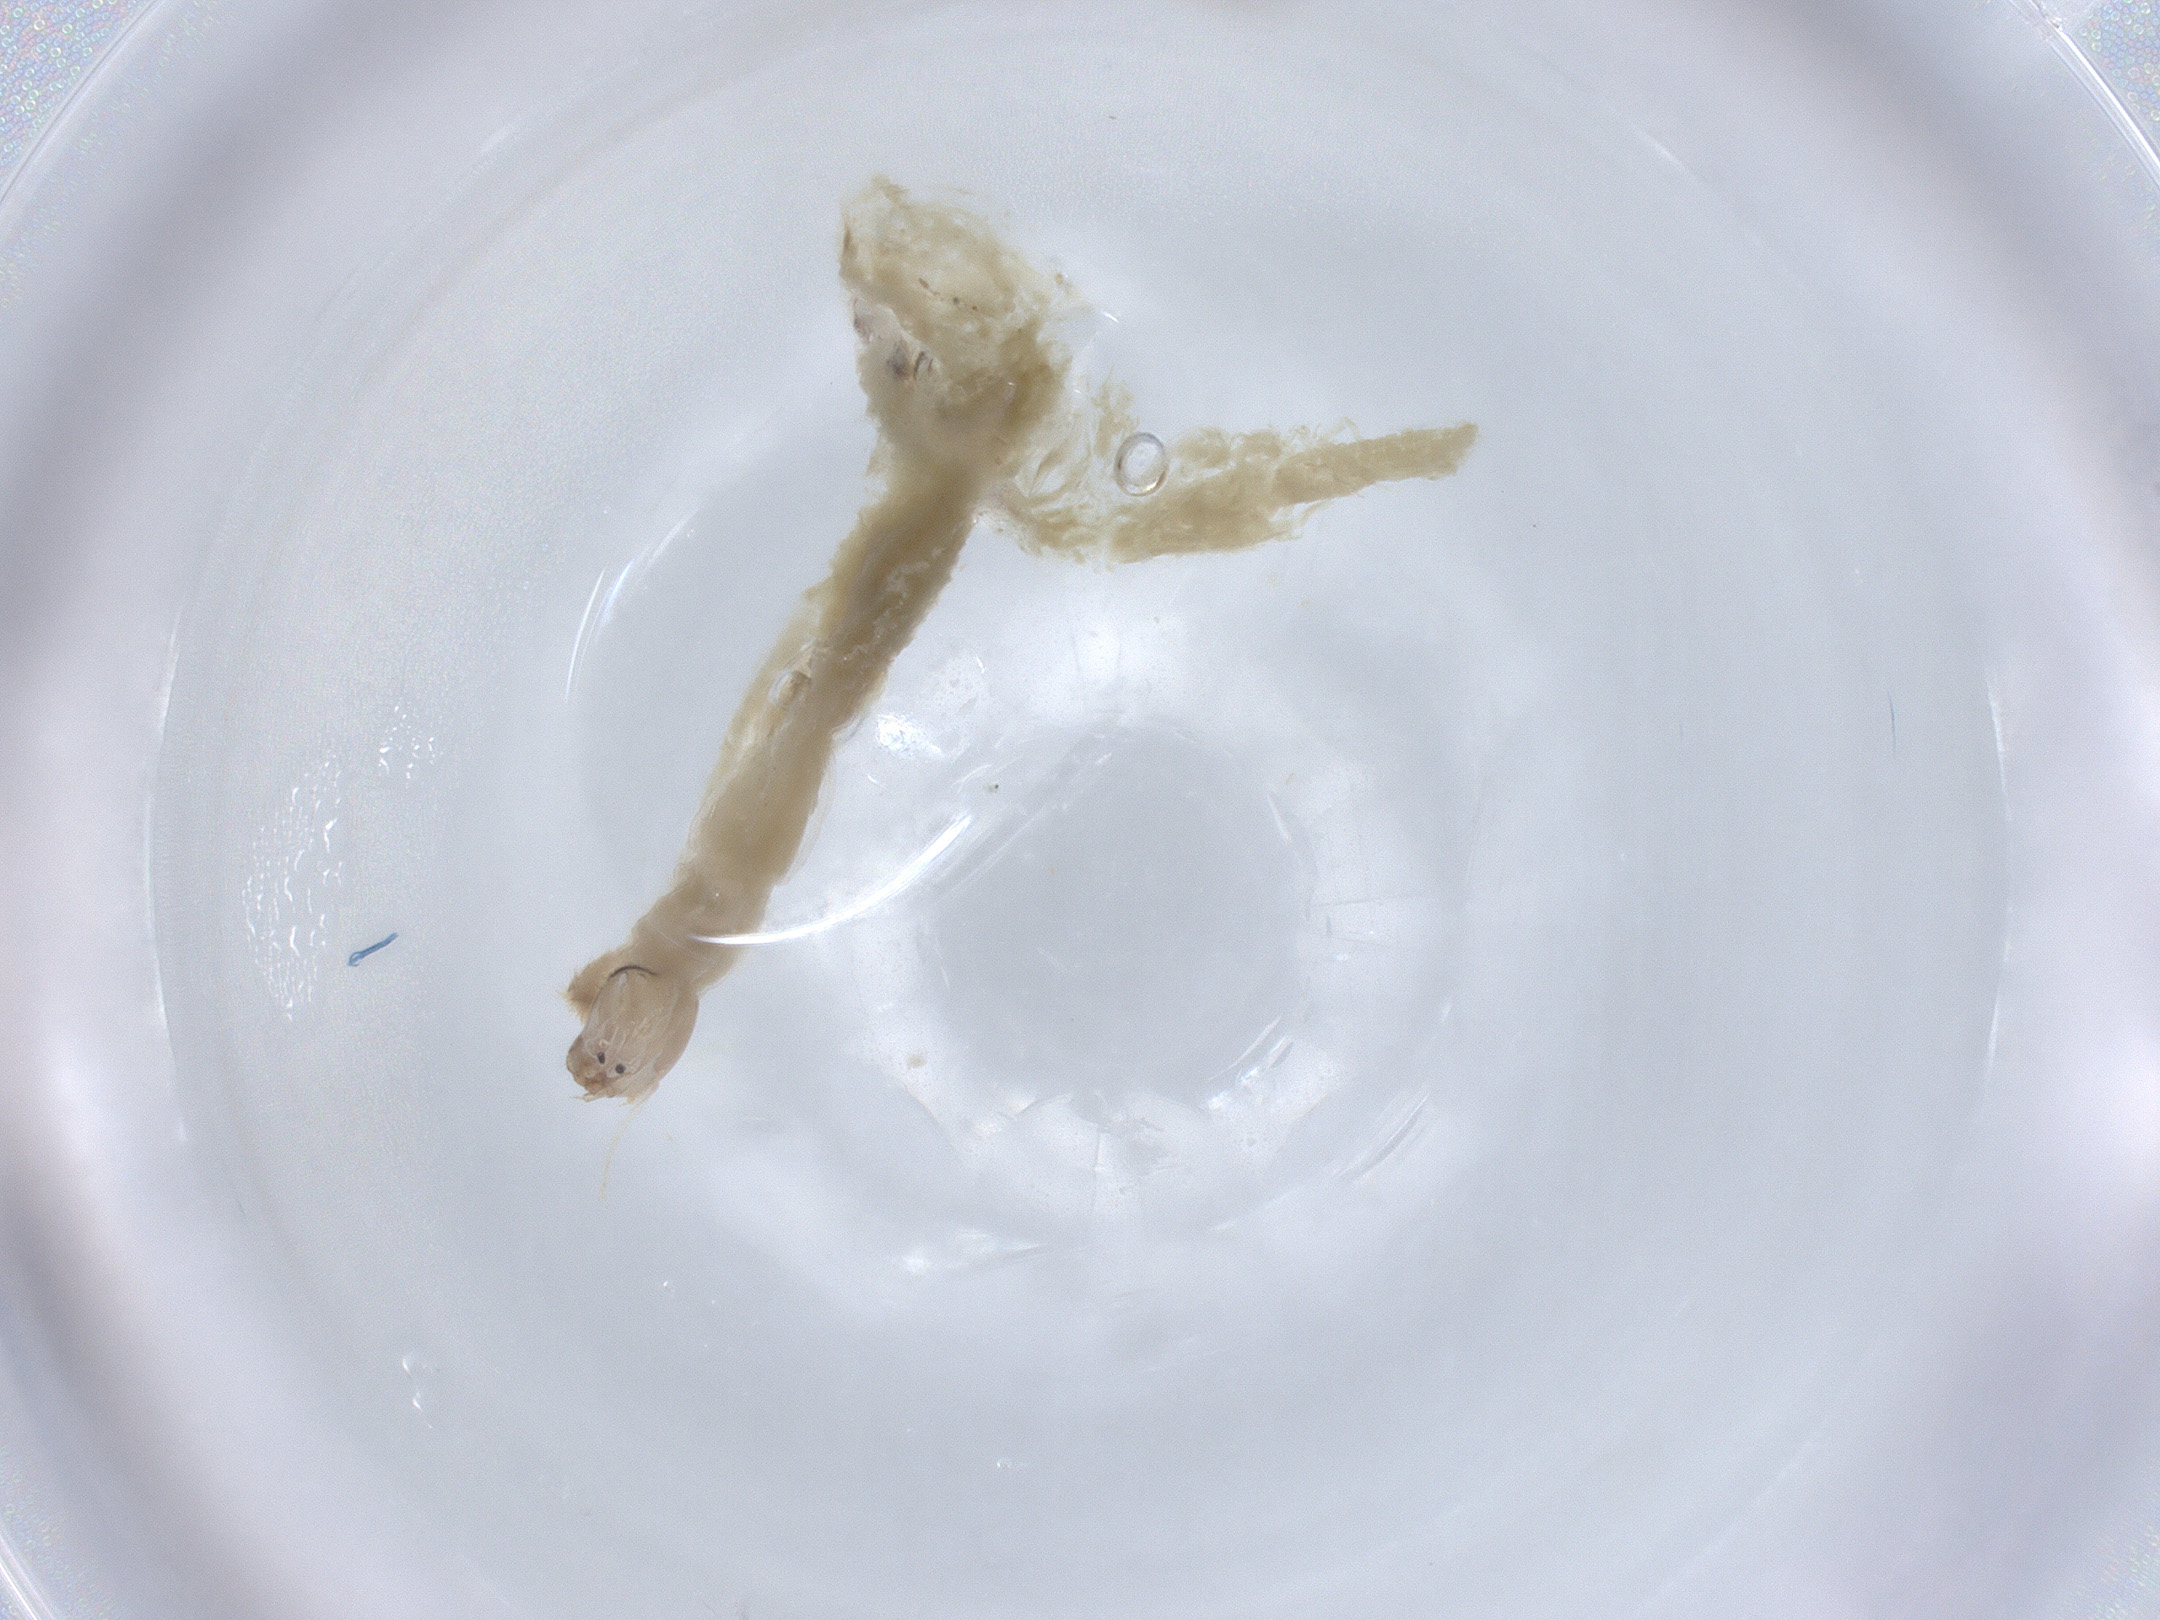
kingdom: Animalia
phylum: Arthropoda
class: Insecta
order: Diptera
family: Chironomidae
